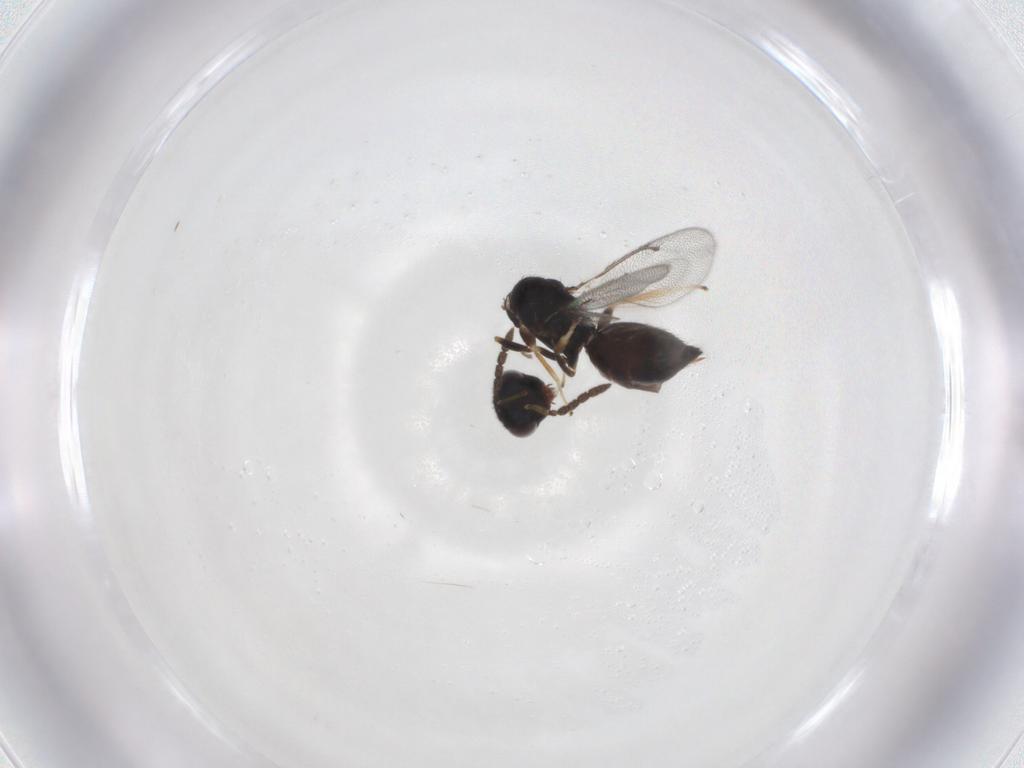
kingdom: Animalia
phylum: Arthropoda
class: Insecta
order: Hymenoptera
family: Eulophidae
